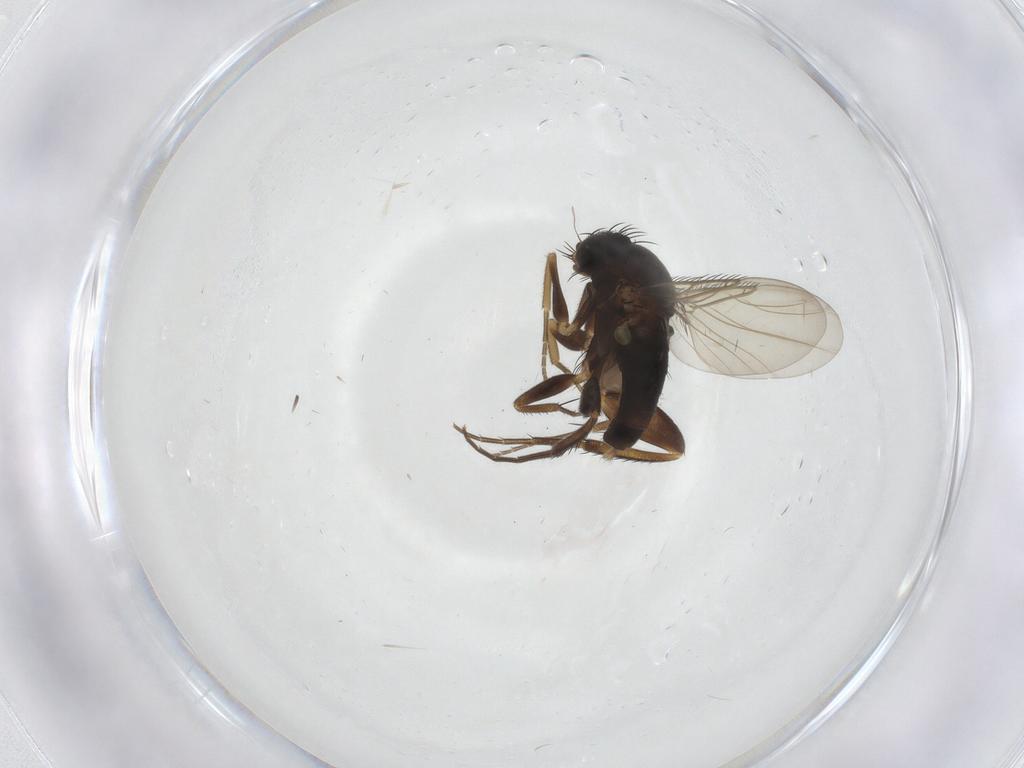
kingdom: Animalia
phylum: Arthropoda
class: Insecta
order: Diptera
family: Phoridae
